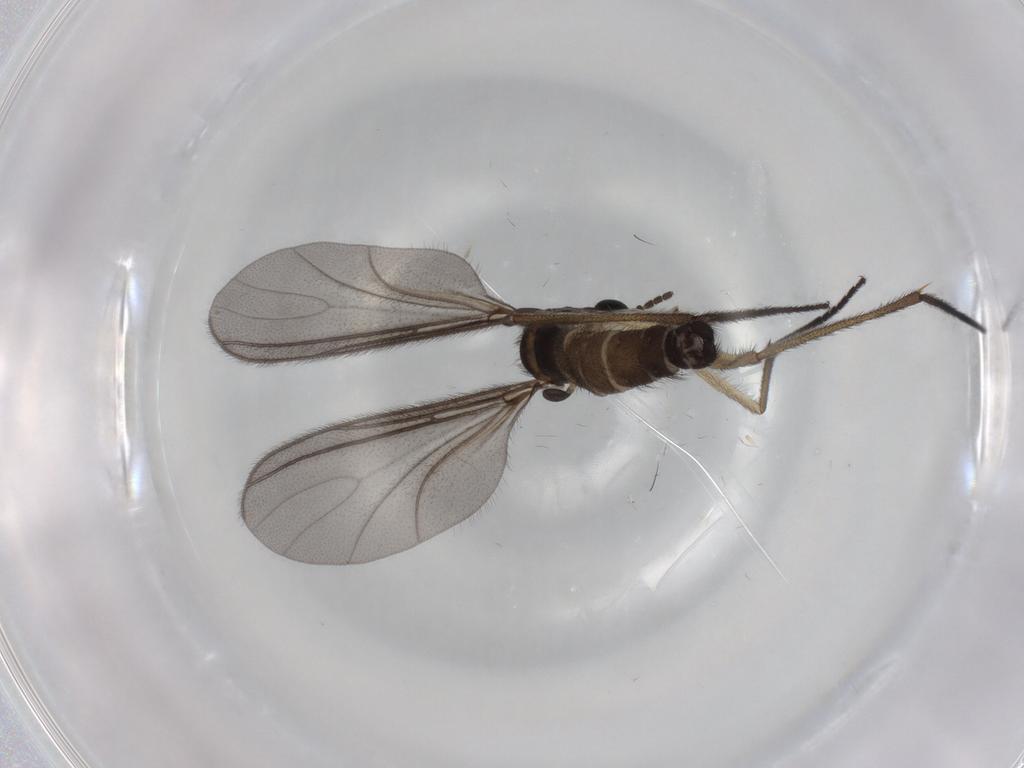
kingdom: Animalia
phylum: Arthropoda
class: Insecta
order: Diptera
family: Sciaridae
